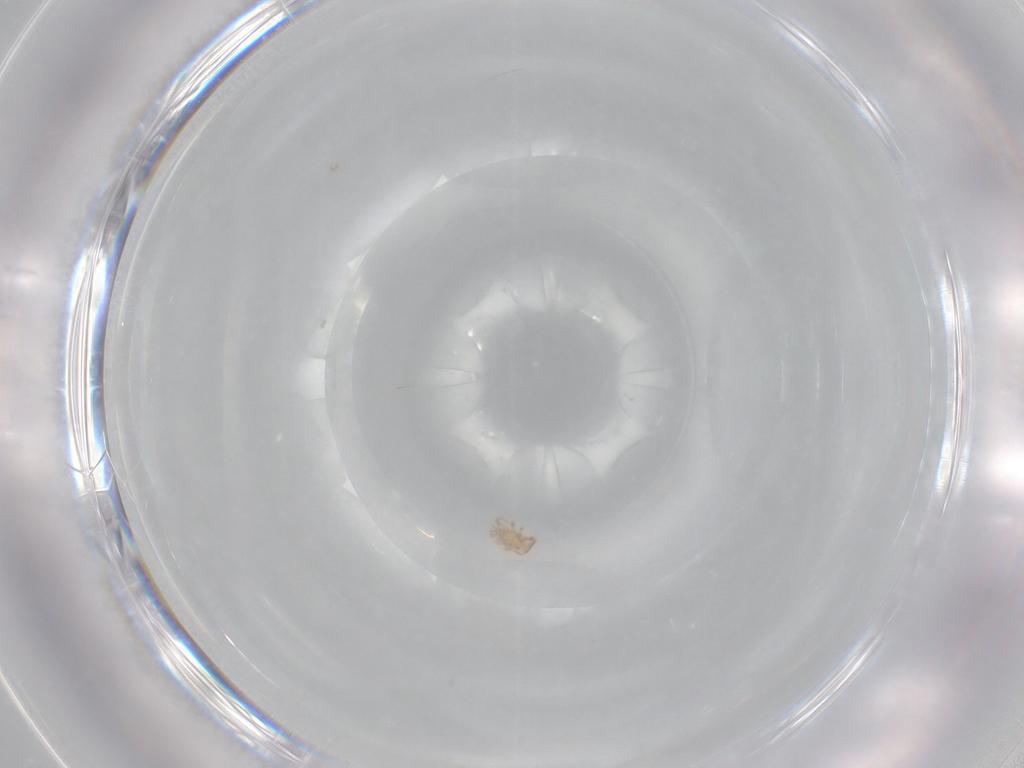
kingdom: Animalia
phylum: Arthropoda
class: Arachnida
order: Mesostigmata
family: Ascidae
